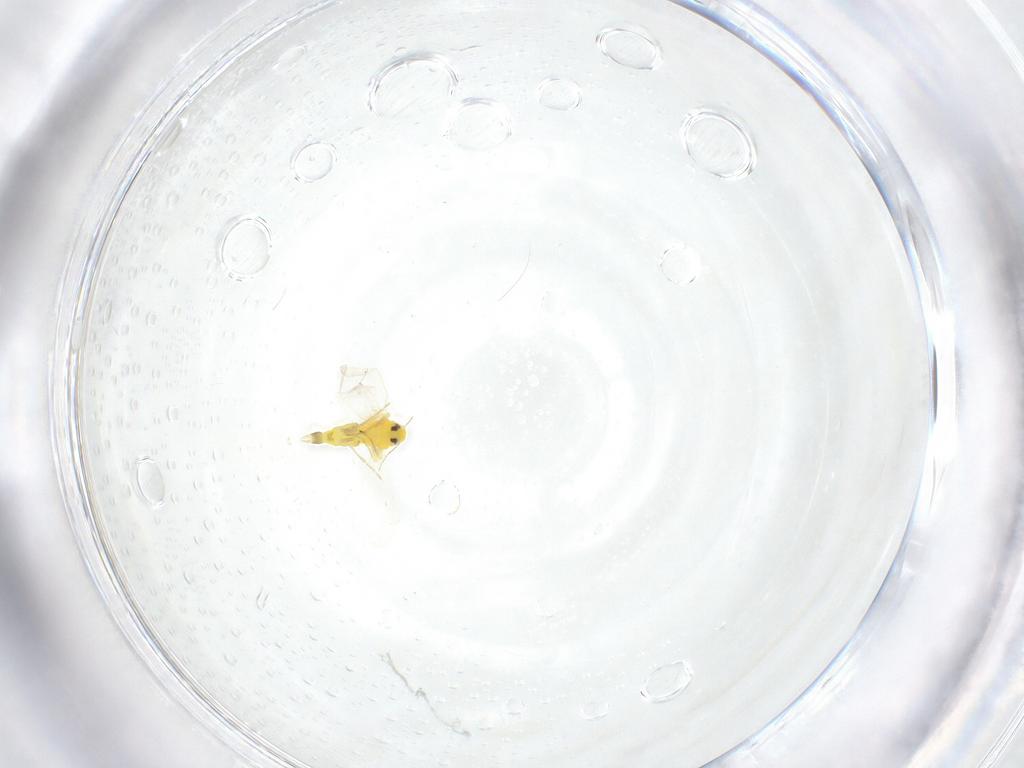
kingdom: Animalia
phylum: Arthropoda
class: Insecta
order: Hemiptera
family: Aleyrodidae
